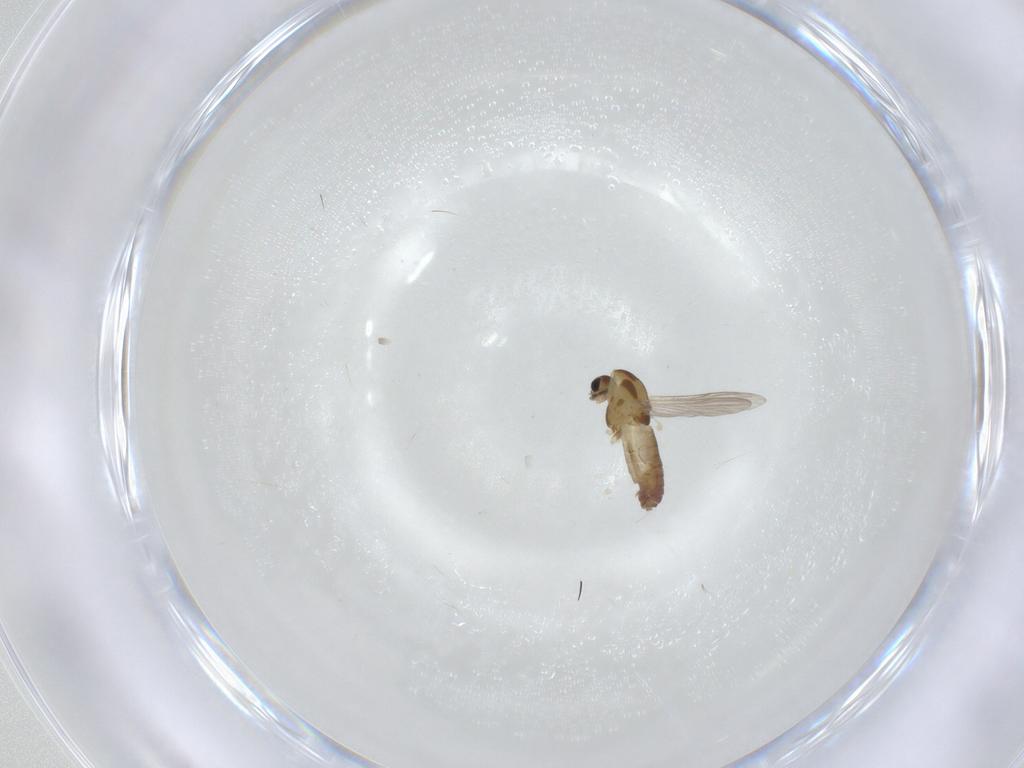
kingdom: Animalia
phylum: Arthropoda
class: Insecta
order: Diptera
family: Chironomidae
